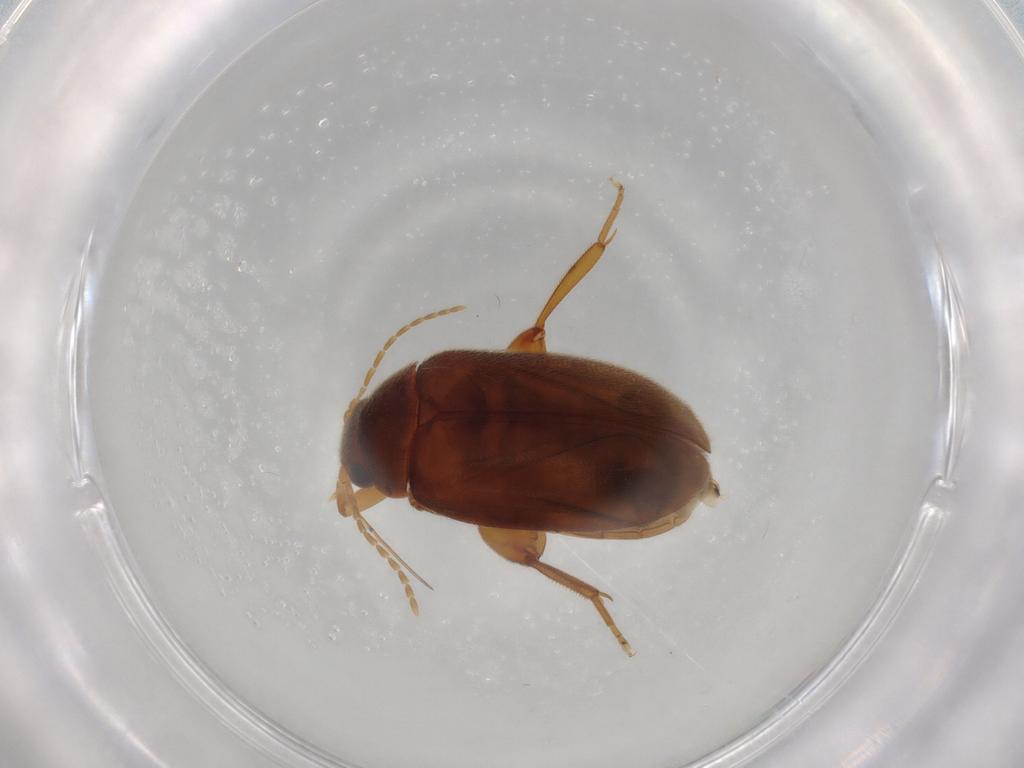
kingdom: Animalia
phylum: Arthropoda
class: Insecta
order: Coleoptera
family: Scirtidae
